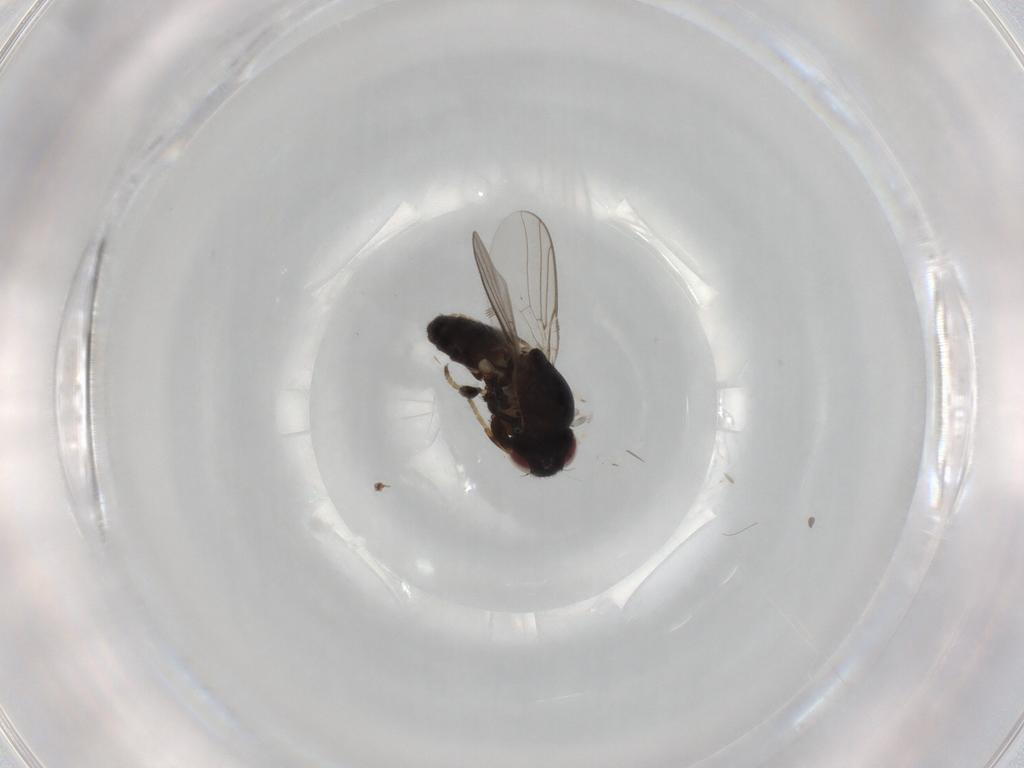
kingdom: Animalia
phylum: Arthropoda
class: Insecta
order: Diptera
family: Chloropidae
